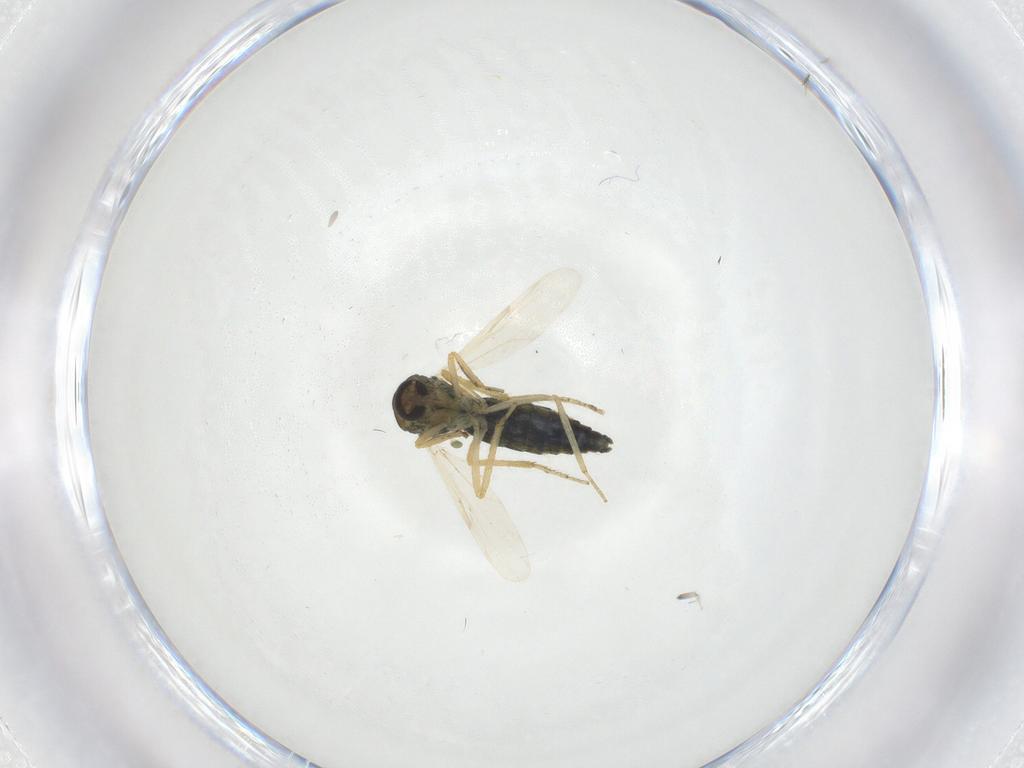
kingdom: Animalia
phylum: Arthropoda
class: Insecta
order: Diptera
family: Ceratopogonidae
